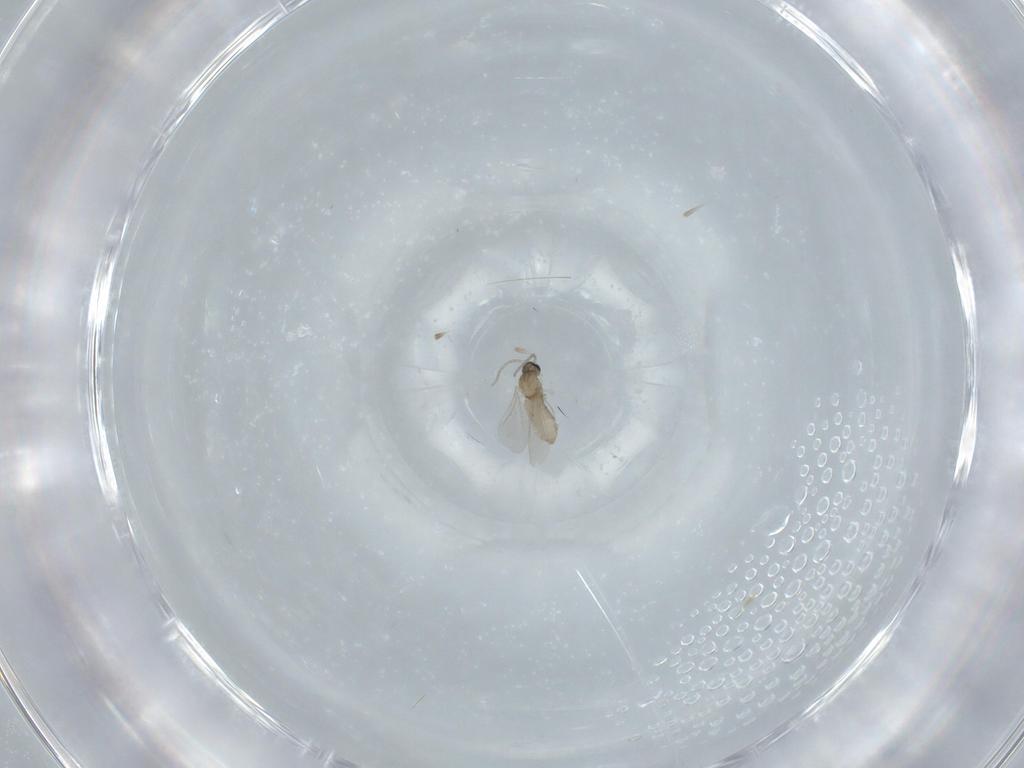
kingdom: Animalia
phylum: Arthropoda
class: Insecta
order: Diptera
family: Cecidomyiidae
